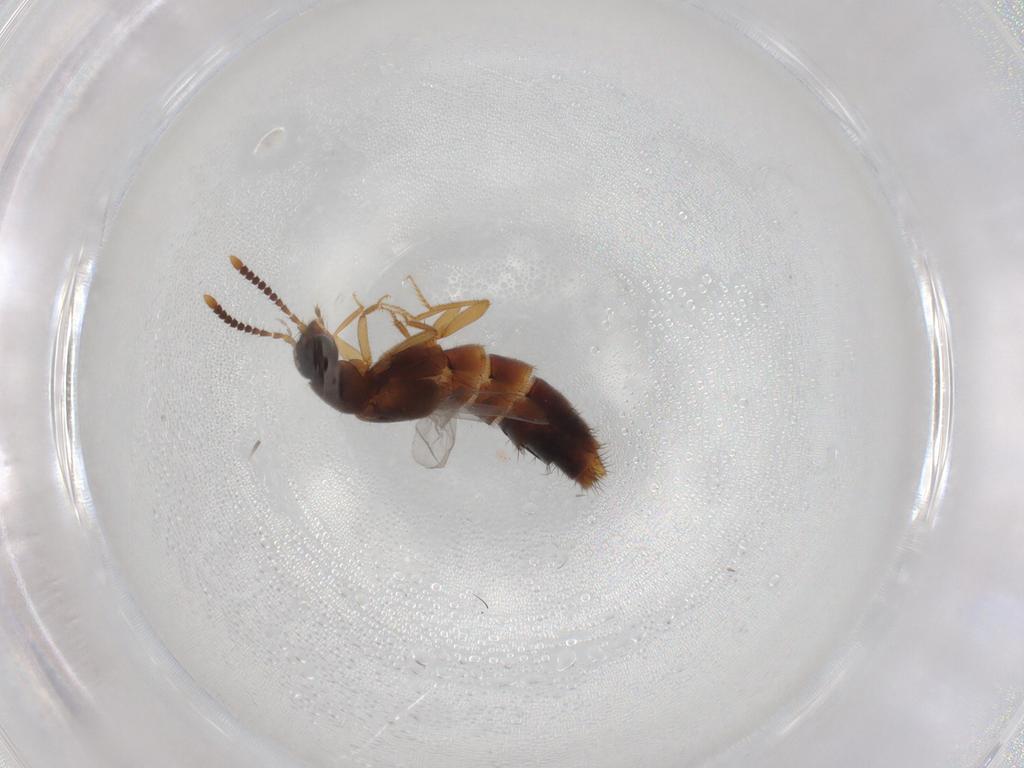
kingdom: Animalia
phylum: Arthropoda
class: Insecta
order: Coleoptera
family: Staphylinidae
